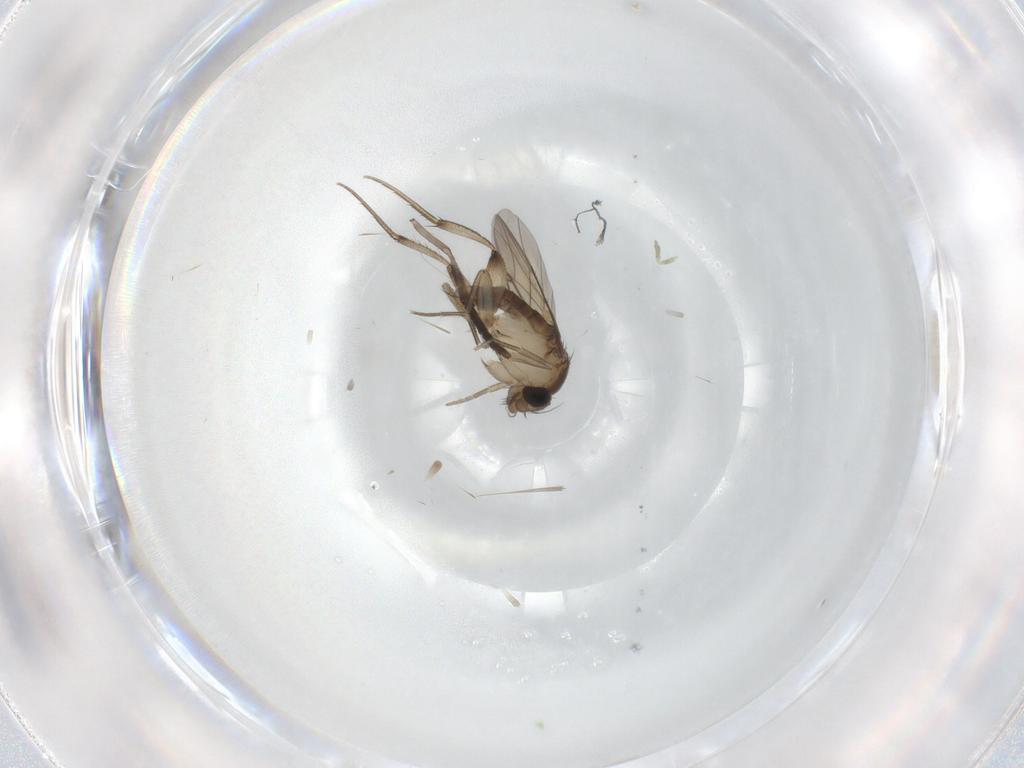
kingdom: Animalia
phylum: Arthropoda
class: Insecta
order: Diptera
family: Phoridae
